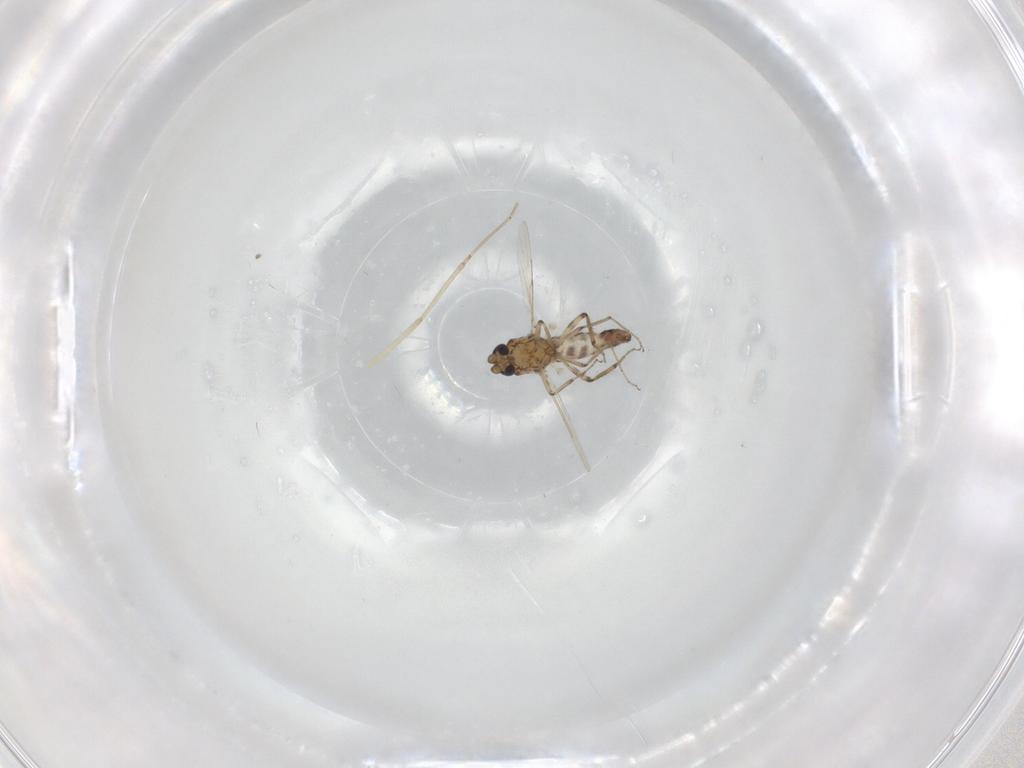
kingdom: Animalia
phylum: Arthropoda
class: Insecta
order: Diptera
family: Ceratopogonidae
